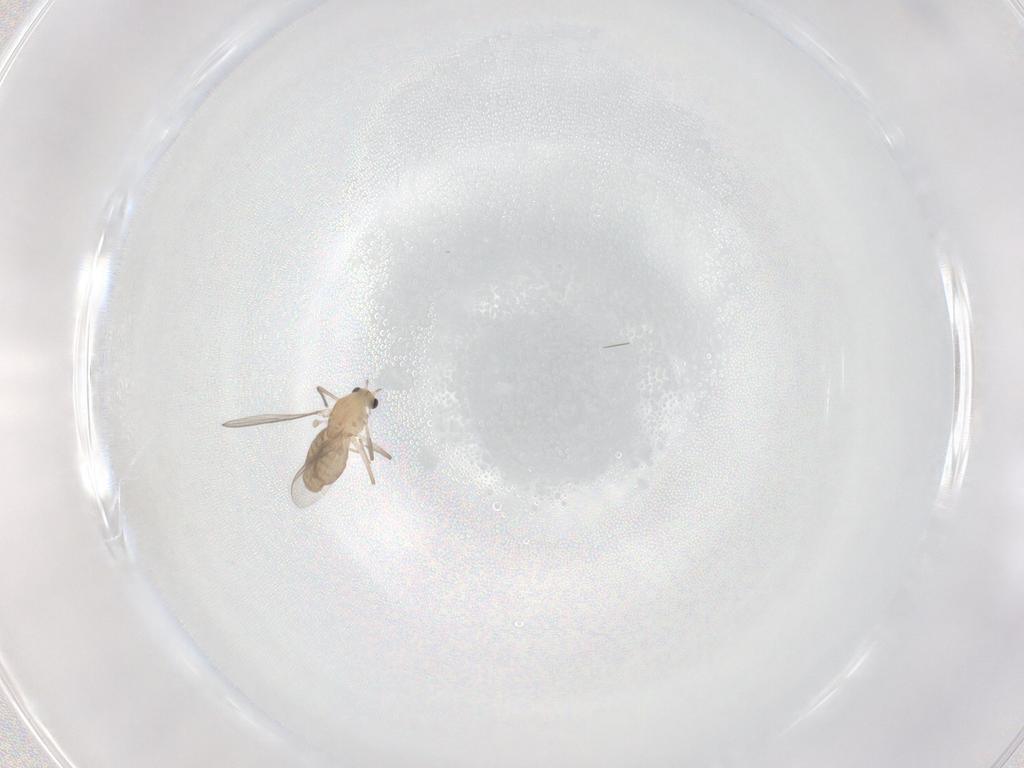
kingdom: Animalia
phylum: Arthropoda
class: Insecta
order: Diptera
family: Chironomidae
